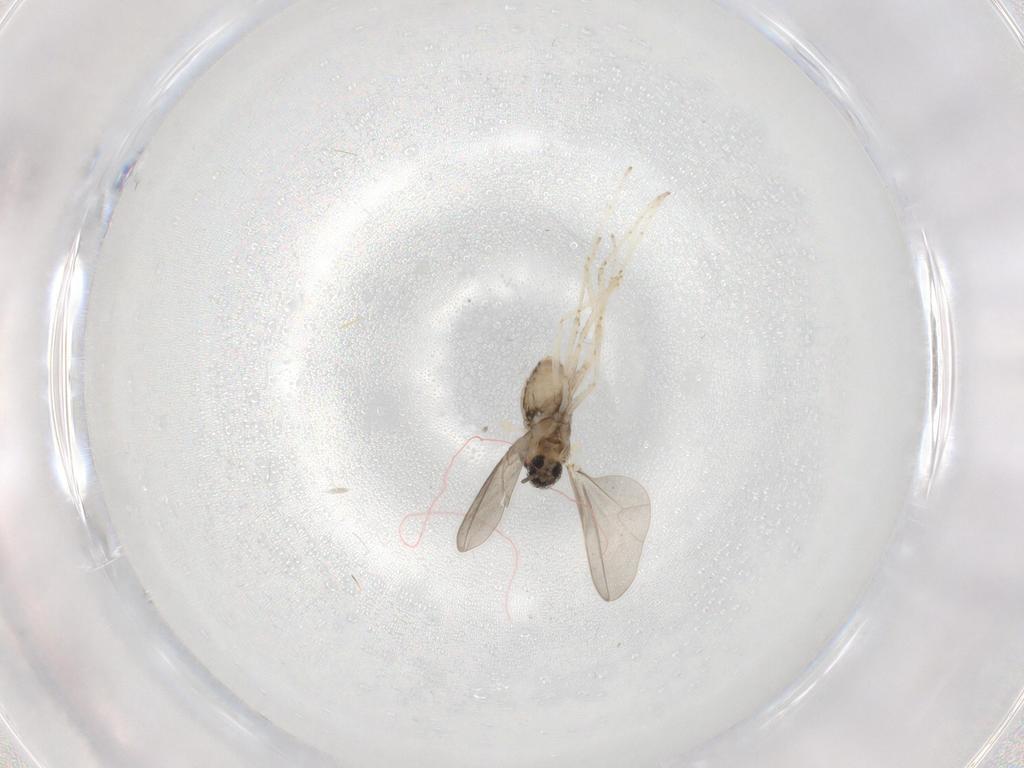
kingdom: Animalia
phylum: Arthropoda
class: Insecta
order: Diptera
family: Cecidomyiidae
